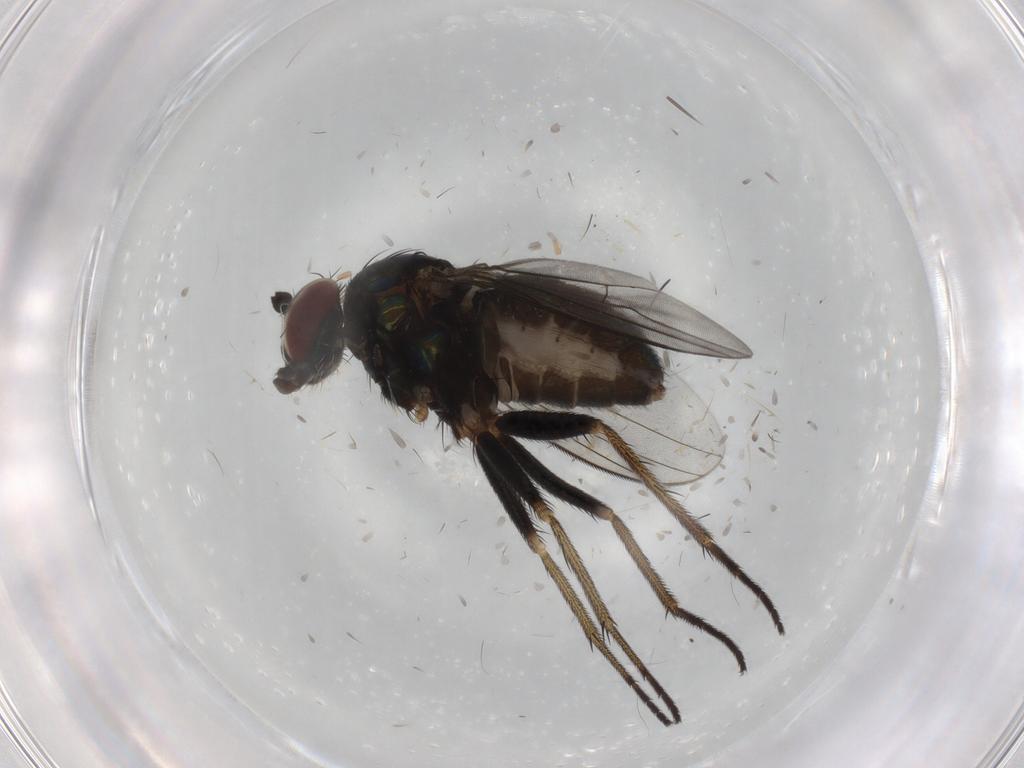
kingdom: Animalia
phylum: Arthropoda
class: Insecta
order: Diptera
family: Dolichopodidae
